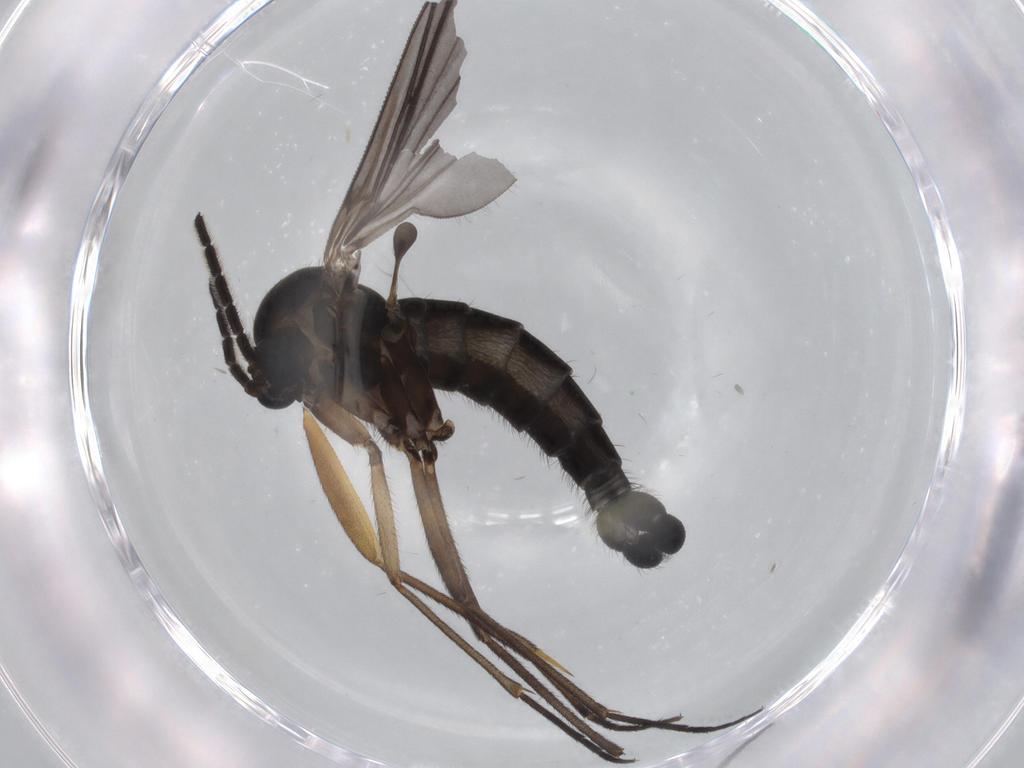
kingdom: Animalia
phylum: Arthropoda
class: Insecta
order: Diptera
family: Sciaridae
